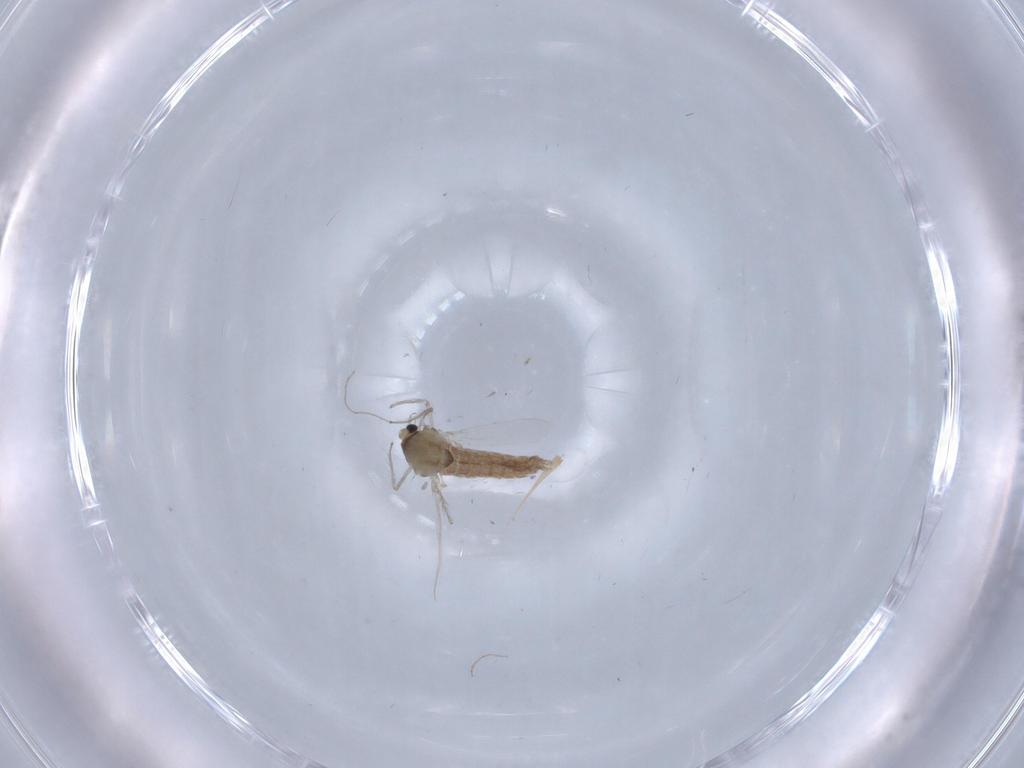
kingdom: Animalia
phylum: Arthropoda
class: Insecta
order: Diptera
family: Chironomidae
